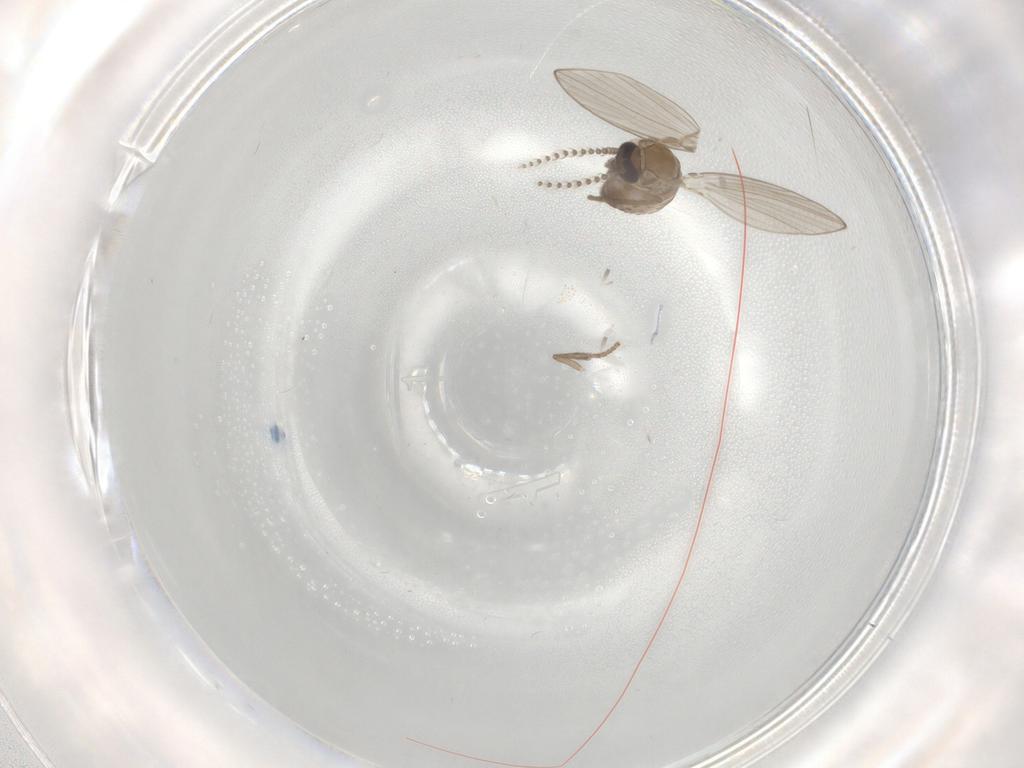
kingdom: Animalia
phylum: Arthropoda
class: Insecta
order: Diptera
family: Psychodidae
